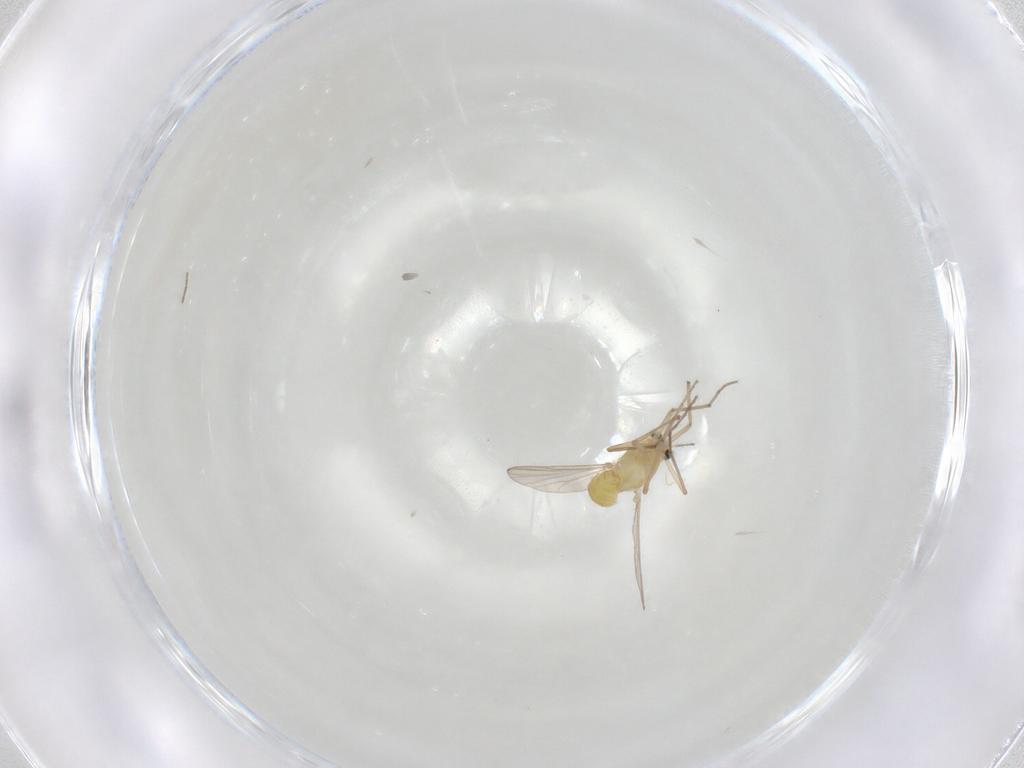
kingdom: Animalia
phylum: Arthropoda
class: Insecta
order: Diptera
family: Chironomidae
